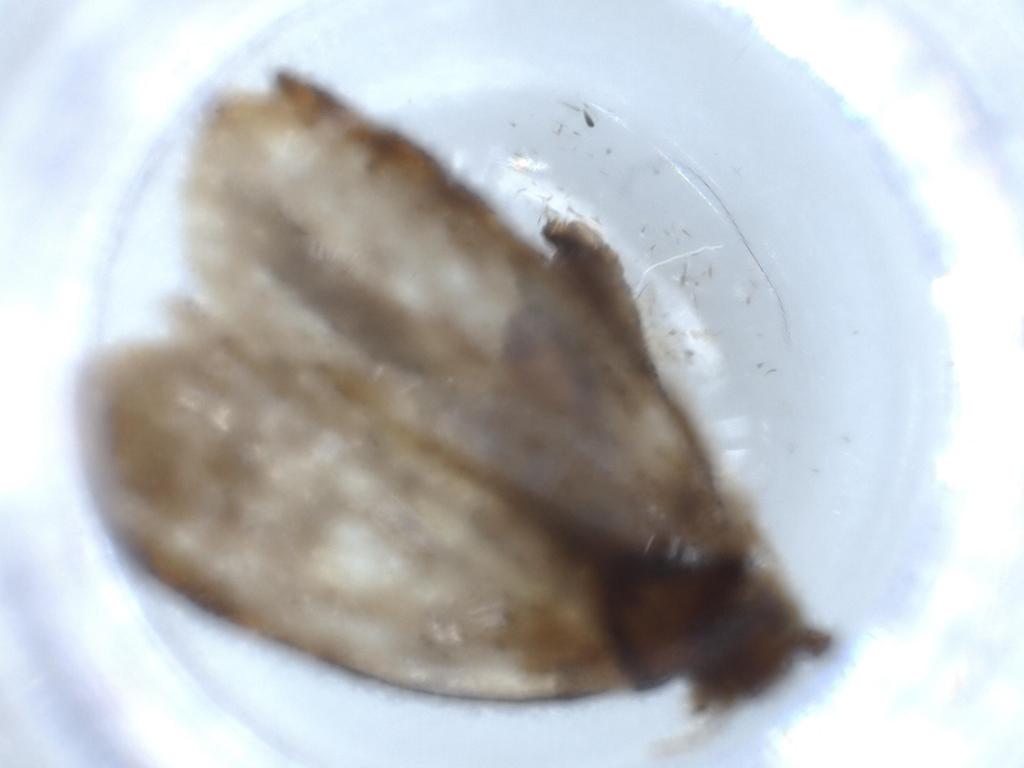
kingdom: Animalia
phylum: Arthropoda
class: Insecta
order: Lepidoptera
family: Tineidae
